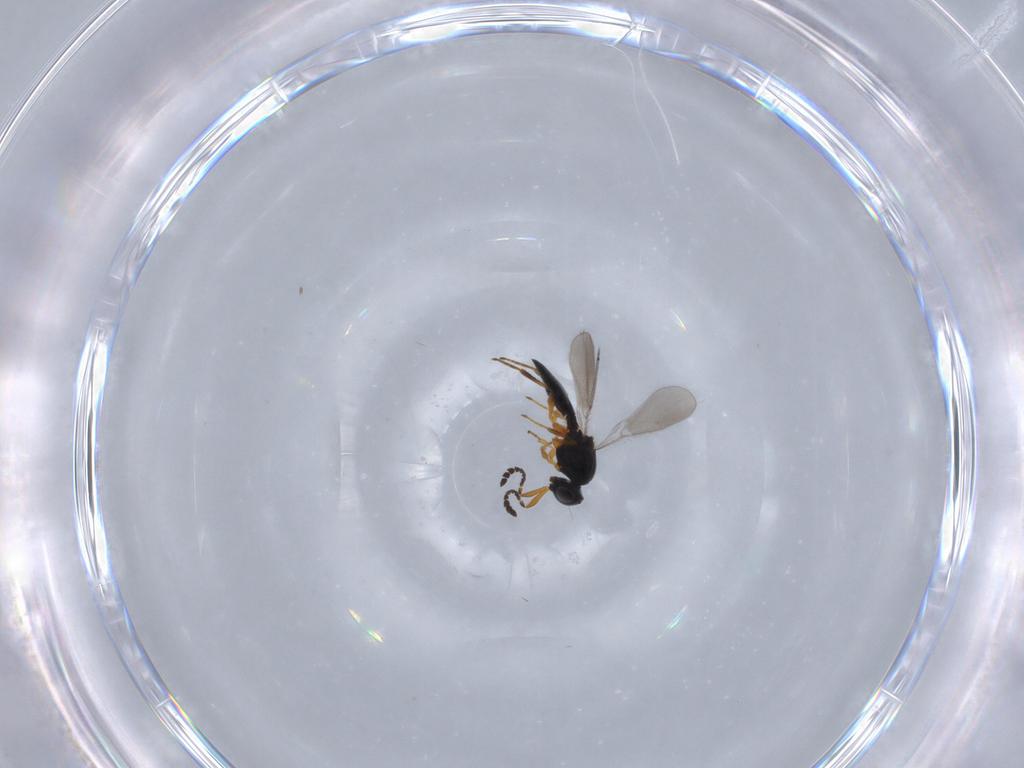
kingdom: Animalia
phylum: Arthropoda
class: Insecta
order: Hymenoptera
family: Platygastridae
